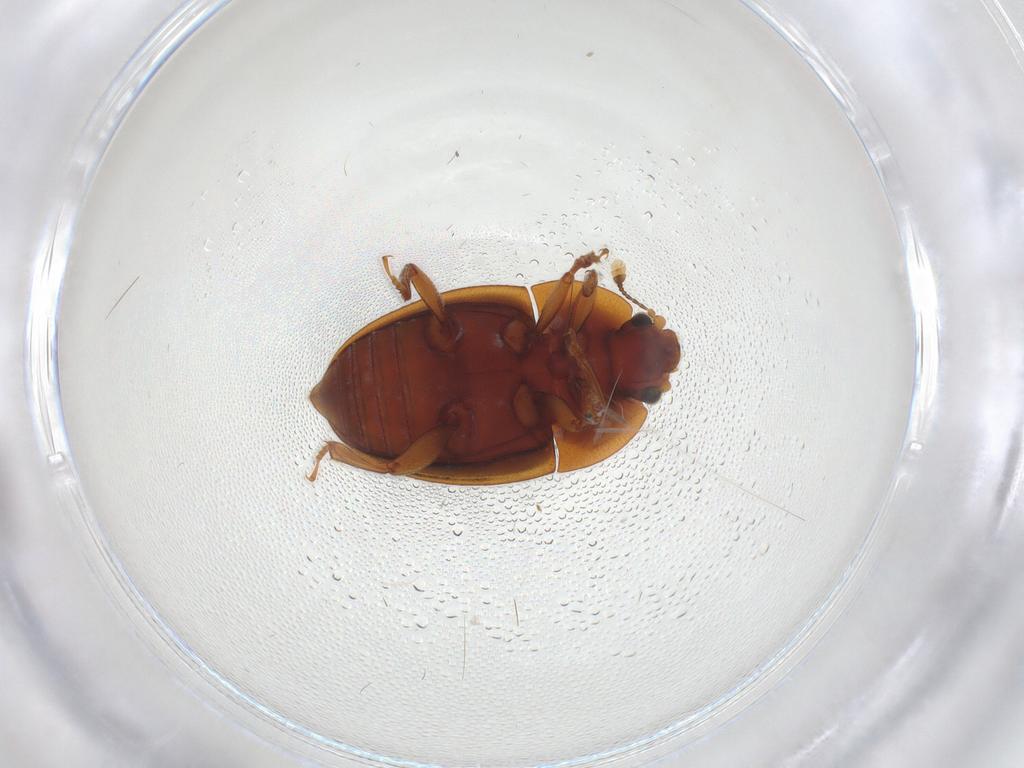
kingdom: Animalia
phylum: Arthropoda
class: Insecta
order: Coleoptera
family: Nitidulidae
